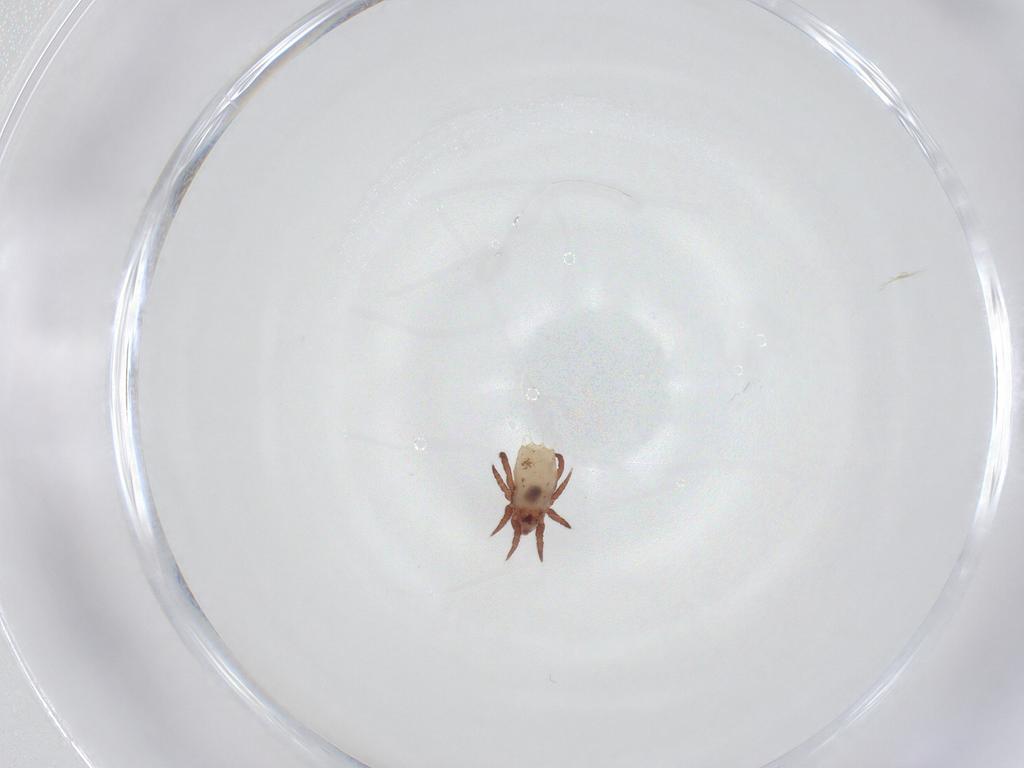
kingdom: Animalia
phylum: Arthropoda
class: Arachnida
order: Sarcoptiformes
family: Nothridae
